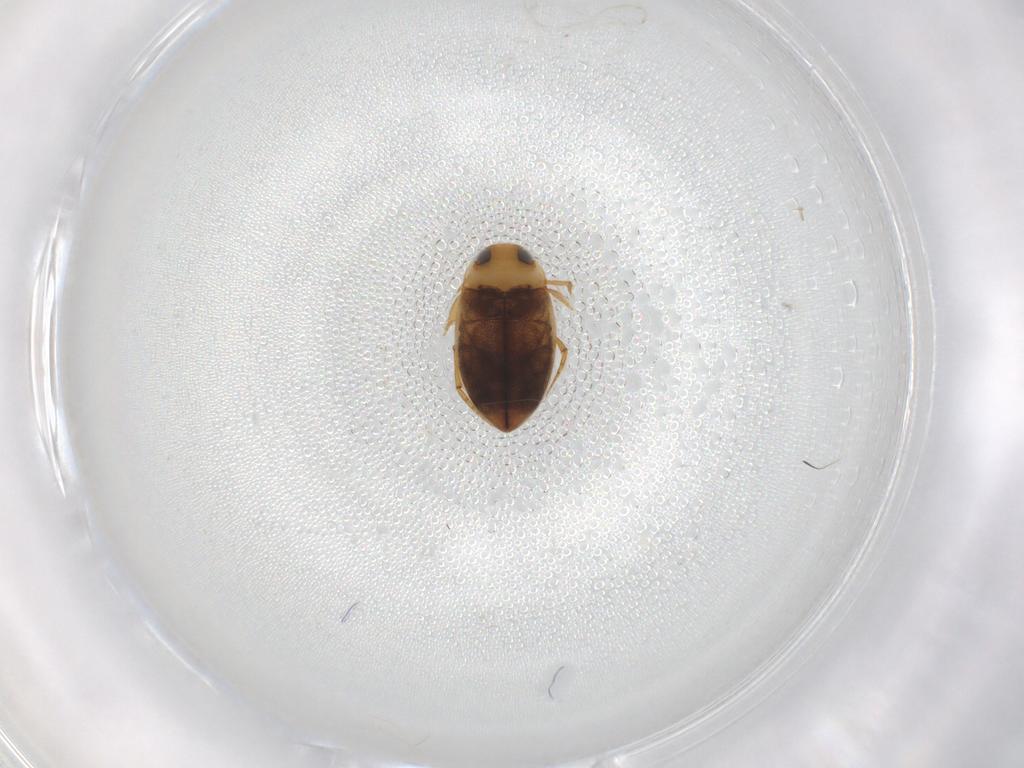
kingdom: Animalia
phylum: Arthropoda
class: Insecta
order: Coleoptera
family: Dytiscidae
